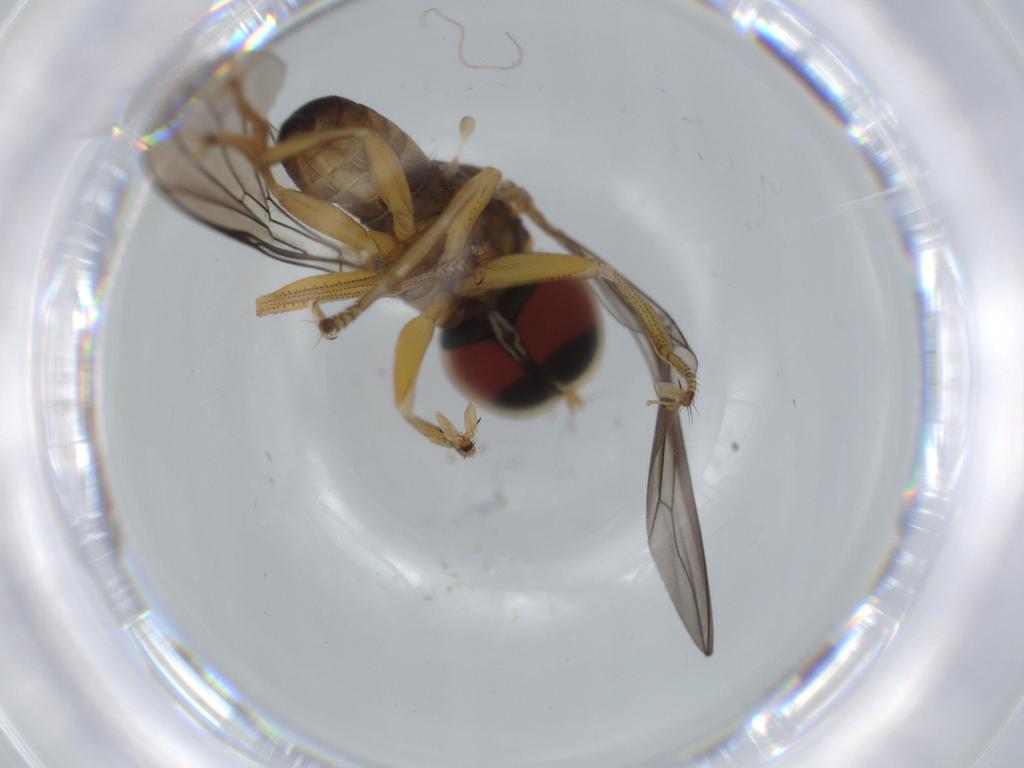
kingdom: Animalia
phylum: Arthropoda
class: Insecta
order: Diptera
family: Pipunculidae
